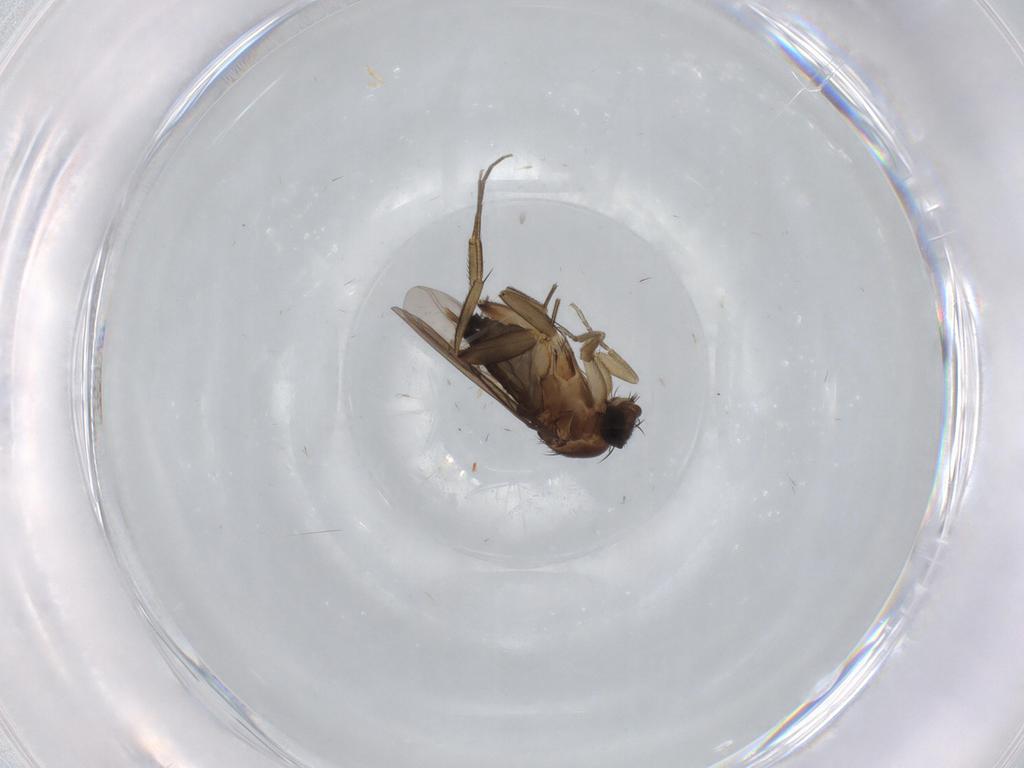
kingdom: Animalia
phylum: Arthropoda
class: Insecta
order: Diptera
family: Phoridae
